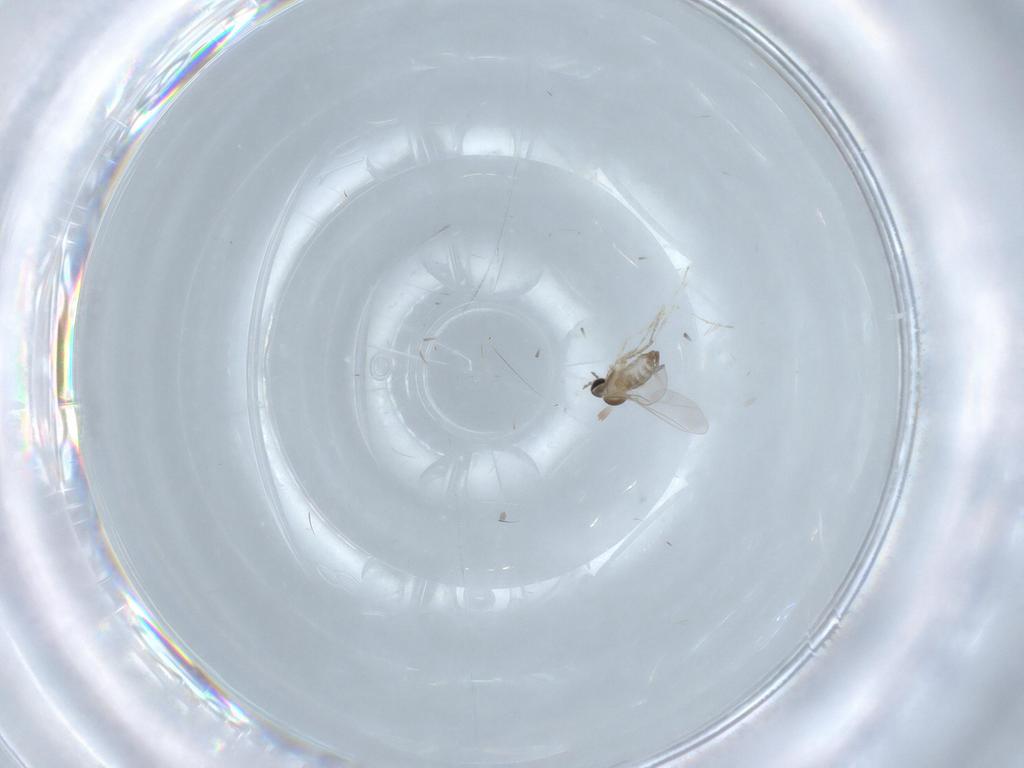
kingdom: Animalia
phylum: Arthropoda
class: Insecta
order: Diptera
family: Cecidomyiidae
